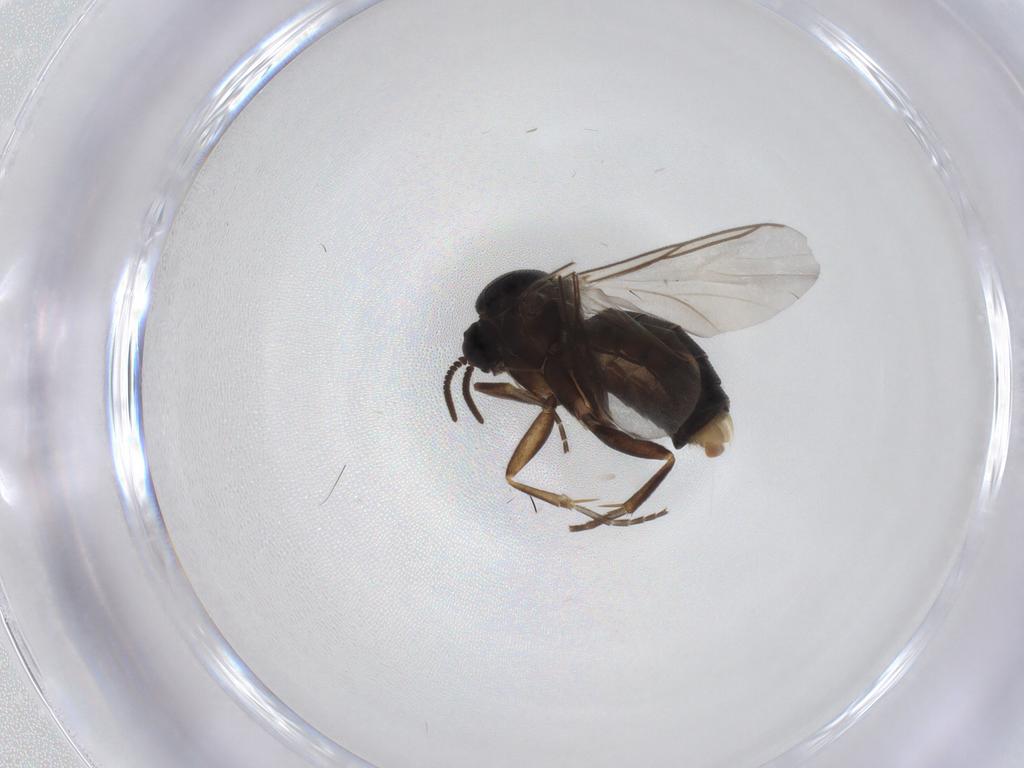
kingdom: Animalia
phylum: Arthropoda
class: Insecta
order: Diptera
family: Mycetophilidae
